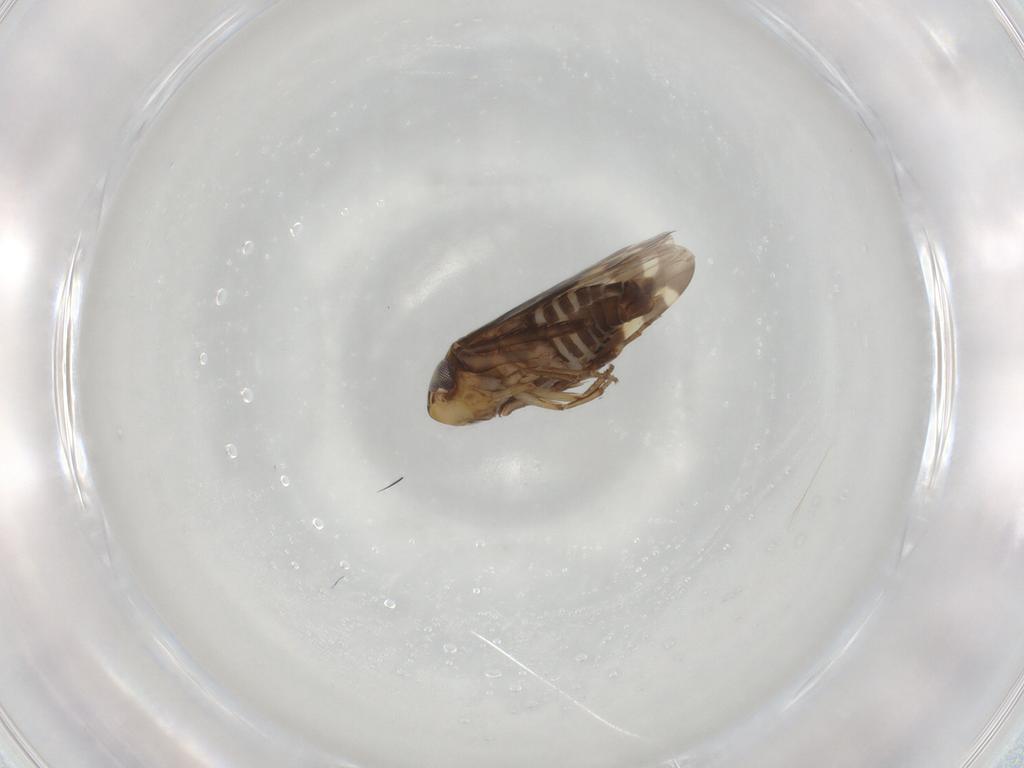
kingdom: Animalia
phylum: Arthropoda
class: Insecta
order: Hemiptera
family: Cicadellidae
